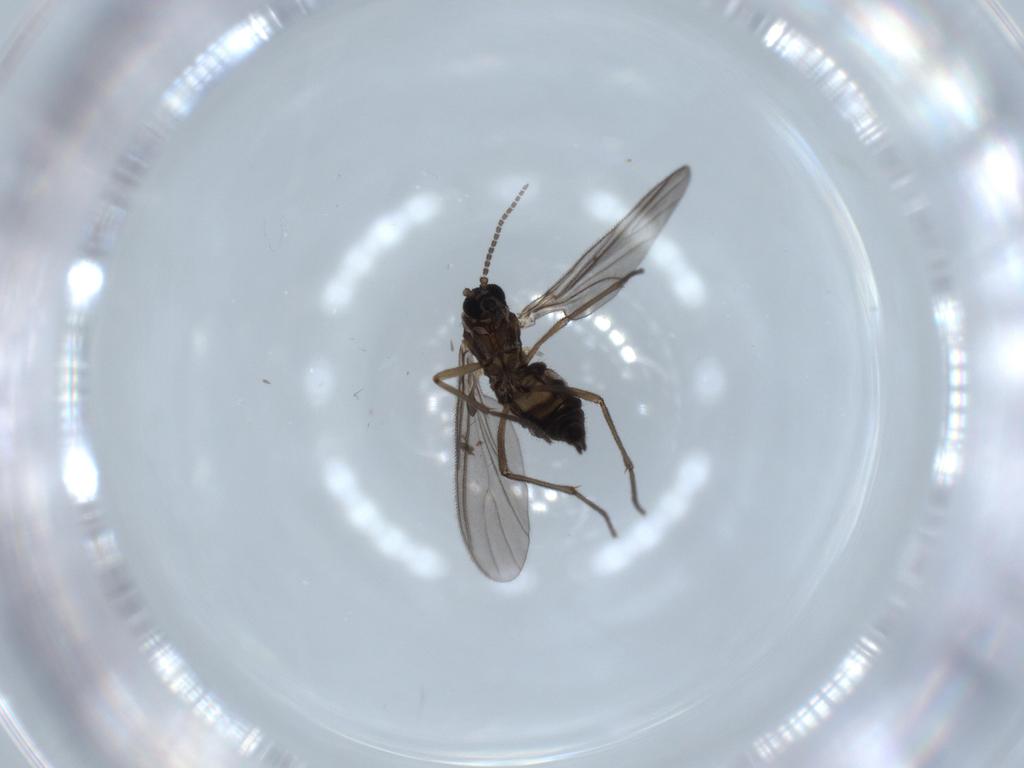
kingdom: Animalia
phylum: Arthropoda
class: Insecta
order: Diptera
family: Sciaridae
